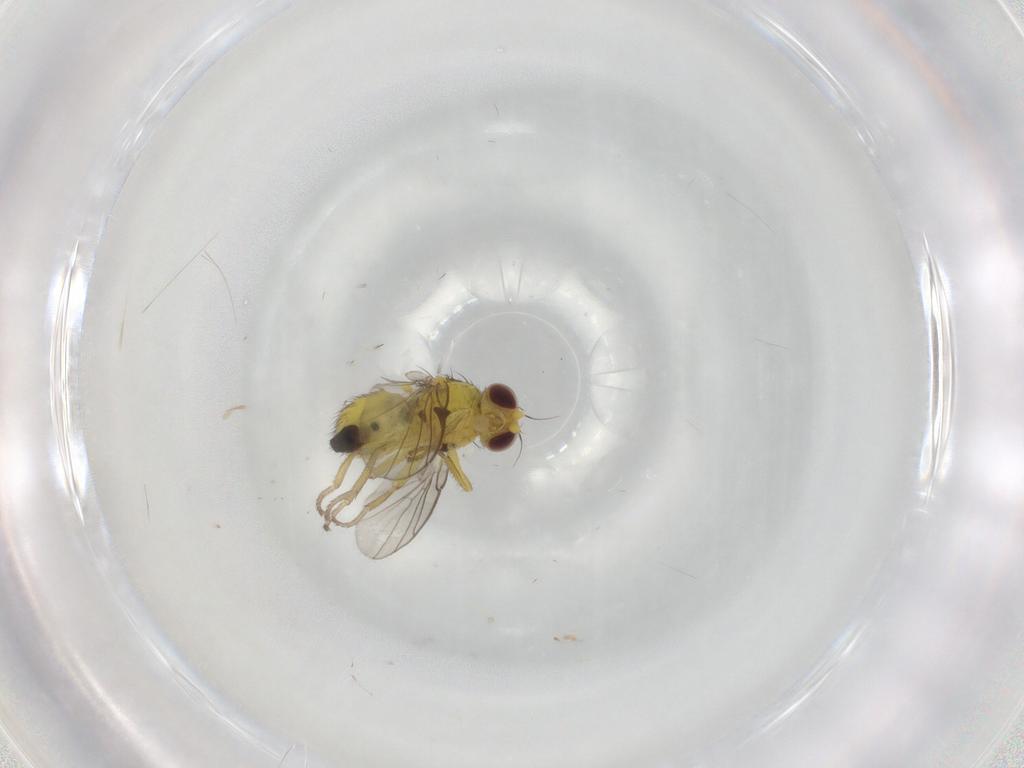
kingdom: Animalia
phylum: Arthropoda
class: Insecta
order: Diptera
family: Agromyzidae
